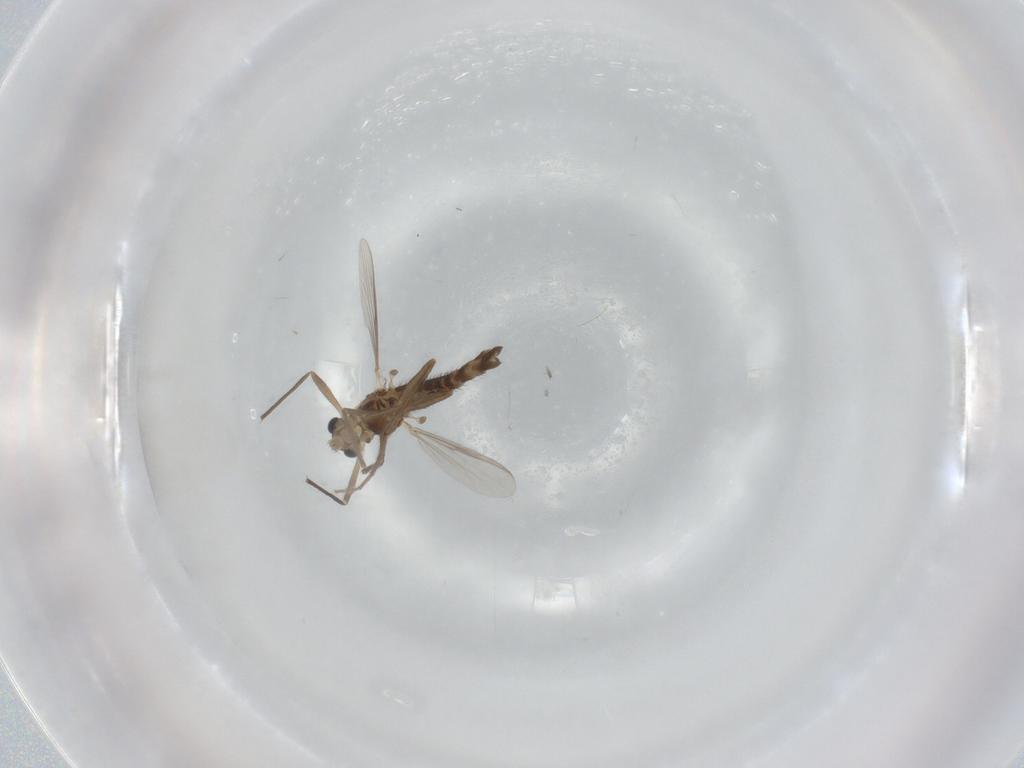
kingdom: Animalia
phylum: Arthropoda
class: Insecta
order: Diptera
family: Chironomidae
